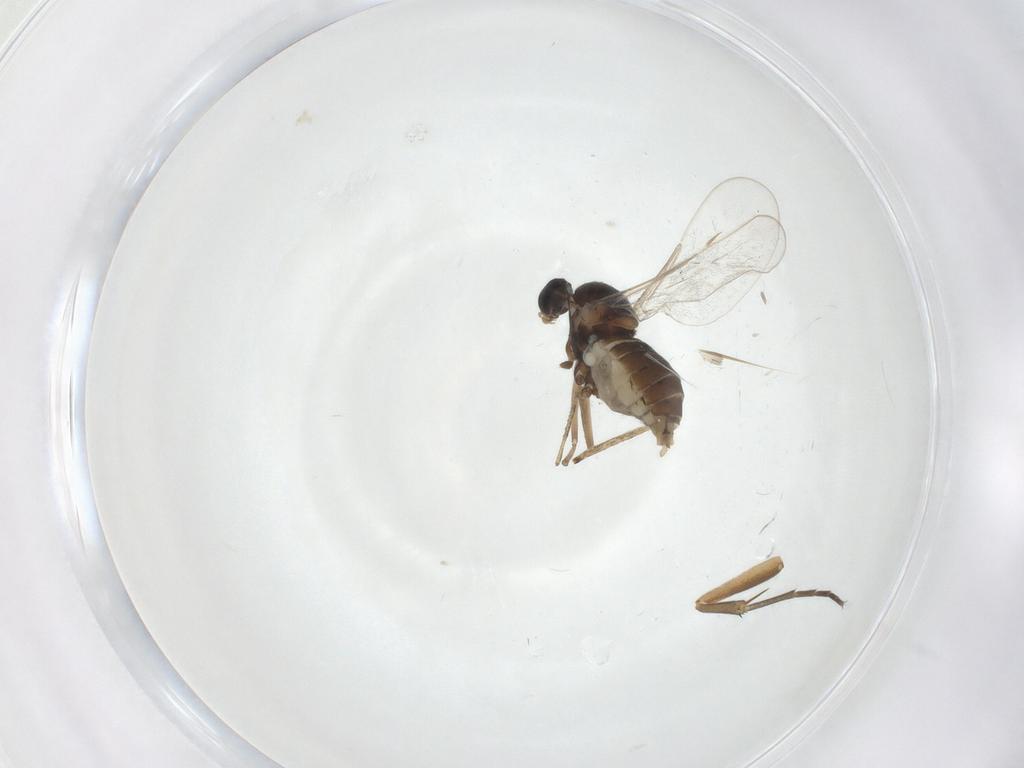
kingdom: Animalia
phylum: Arthropoda
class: Insecta
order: Diptera
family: Cecidomyiidae
